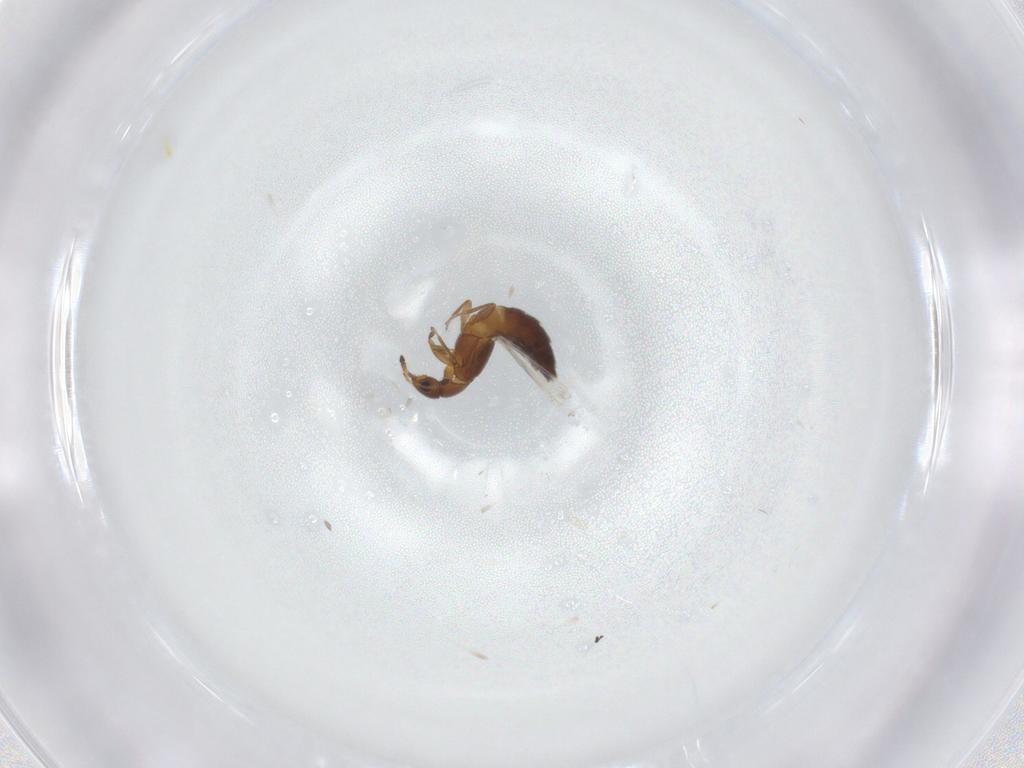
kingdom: Animalia
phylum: Arthropoda
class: Insecta
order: Coleoptera
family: Staphylinidae
